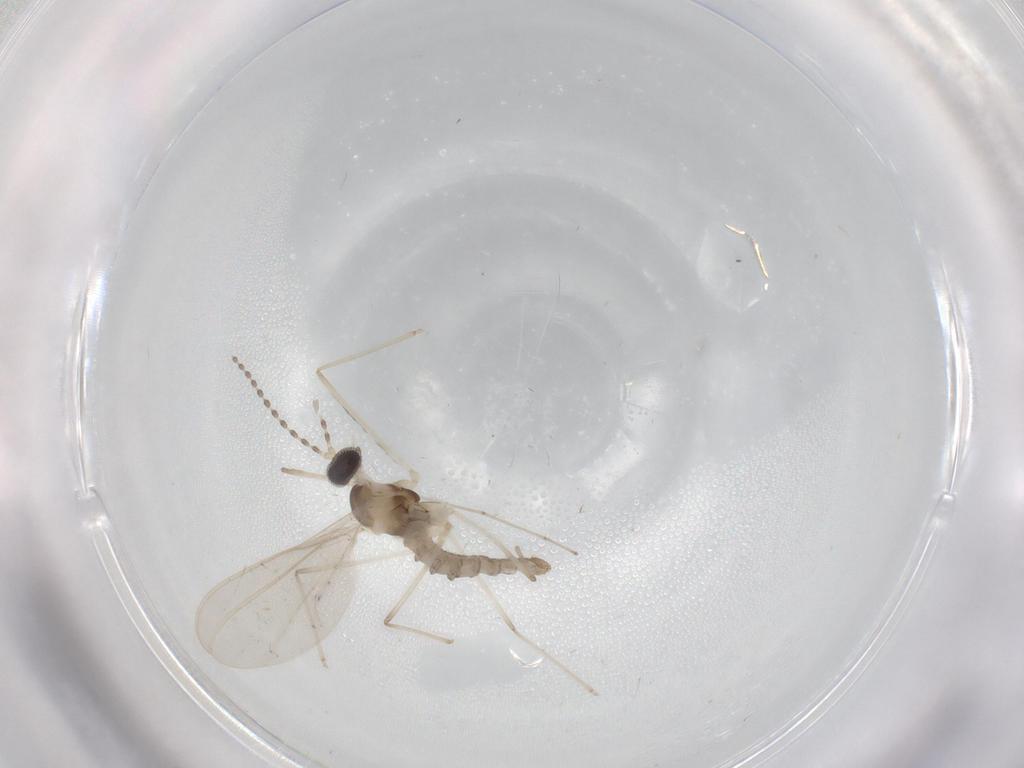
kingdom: Animalia
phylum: Arthropoda
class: Insecta
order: Diptera
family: Cecidomyiidae
